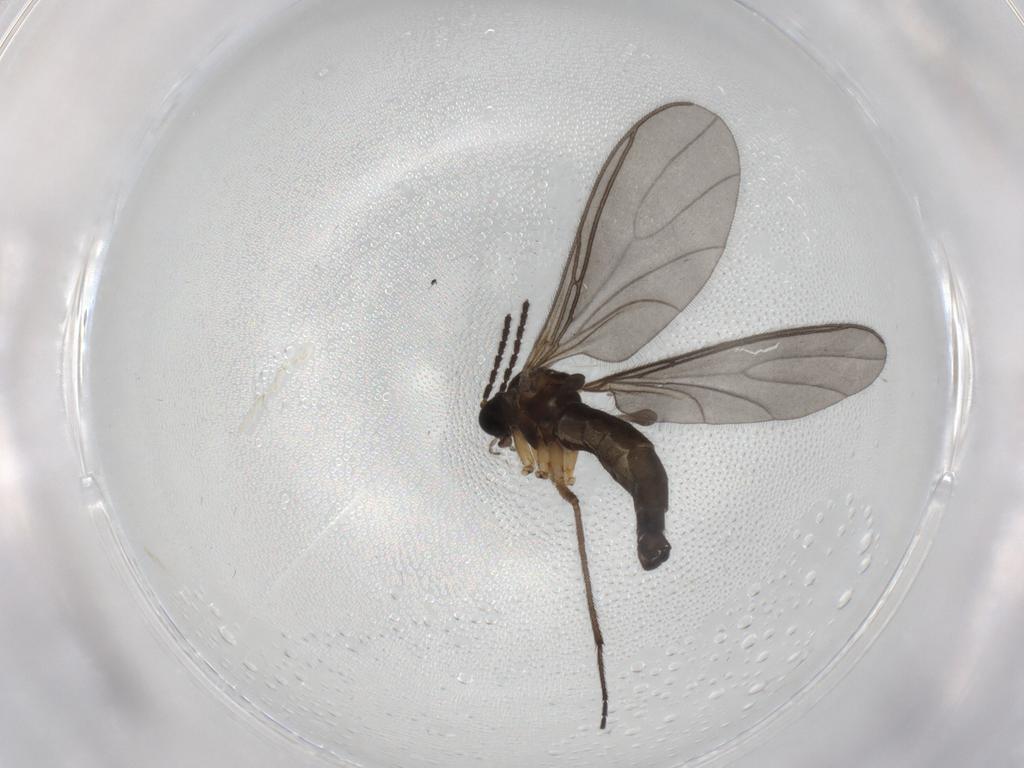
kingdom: Animalia
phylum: Arthropoda
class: Insecta
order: Diptera
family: Sciaridae
